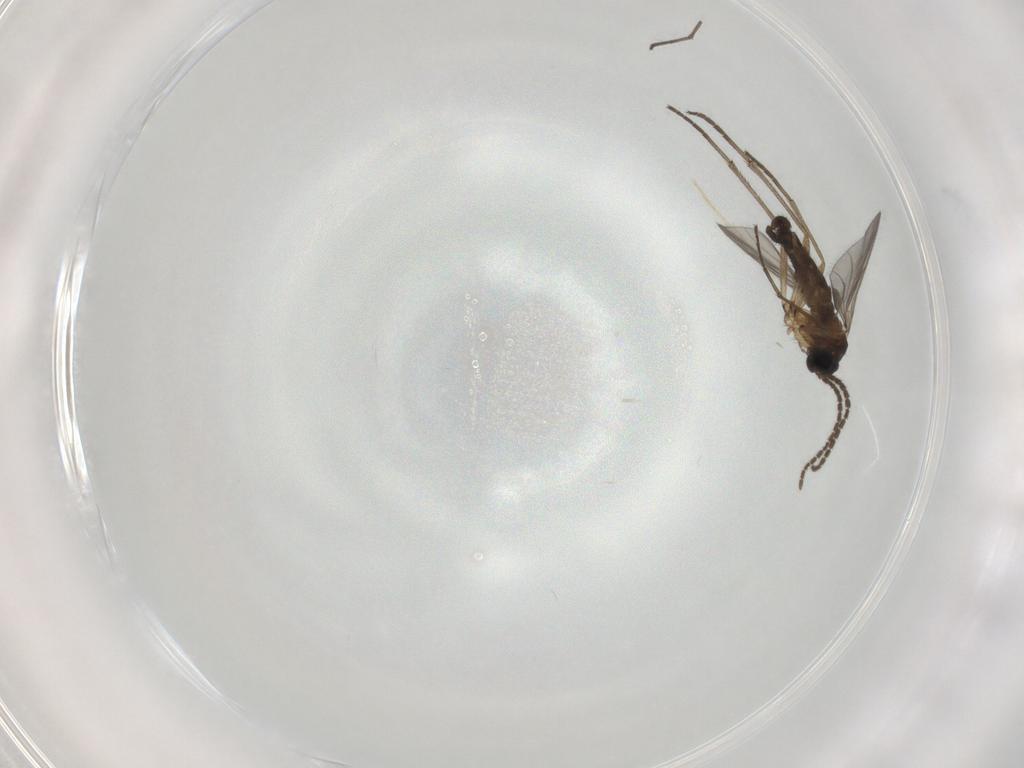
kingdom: Animalia
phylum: Arthropoda
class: Insecta
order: Diptera
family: Sciaridae
